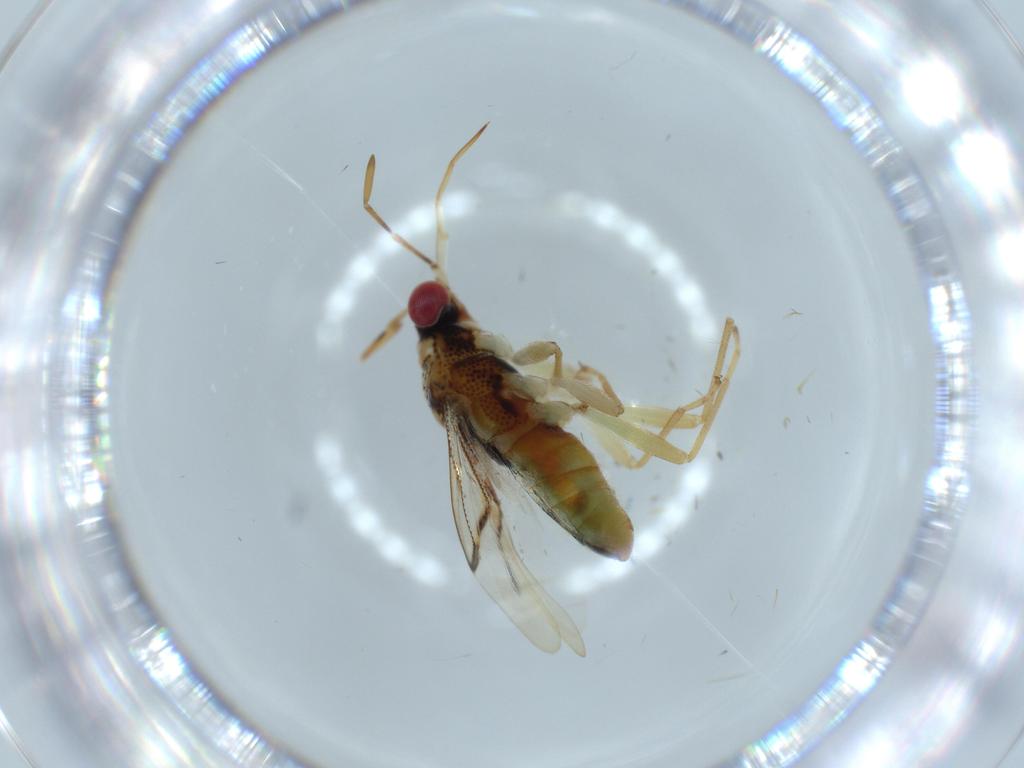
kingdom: Animalia
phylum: Arthropoda
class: Insecta
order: Hemiptera
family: Geocoridae
